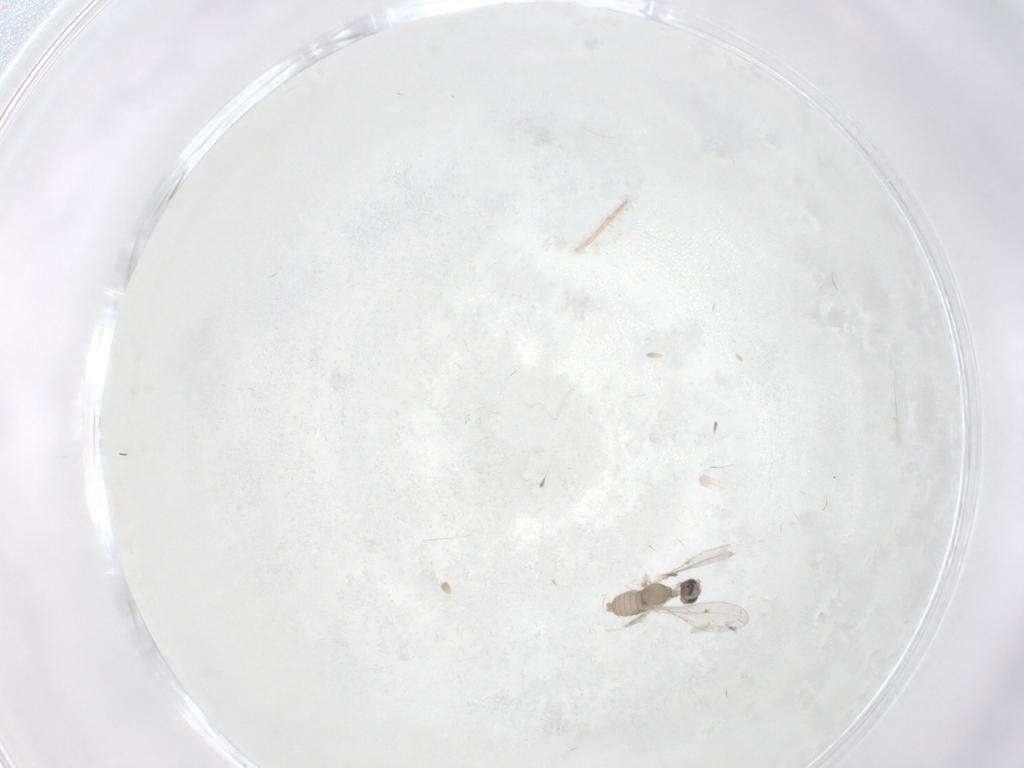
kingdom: Animalia
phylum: Arthropoda
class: Insecta
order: Diptera
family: Cecidomyiidae
